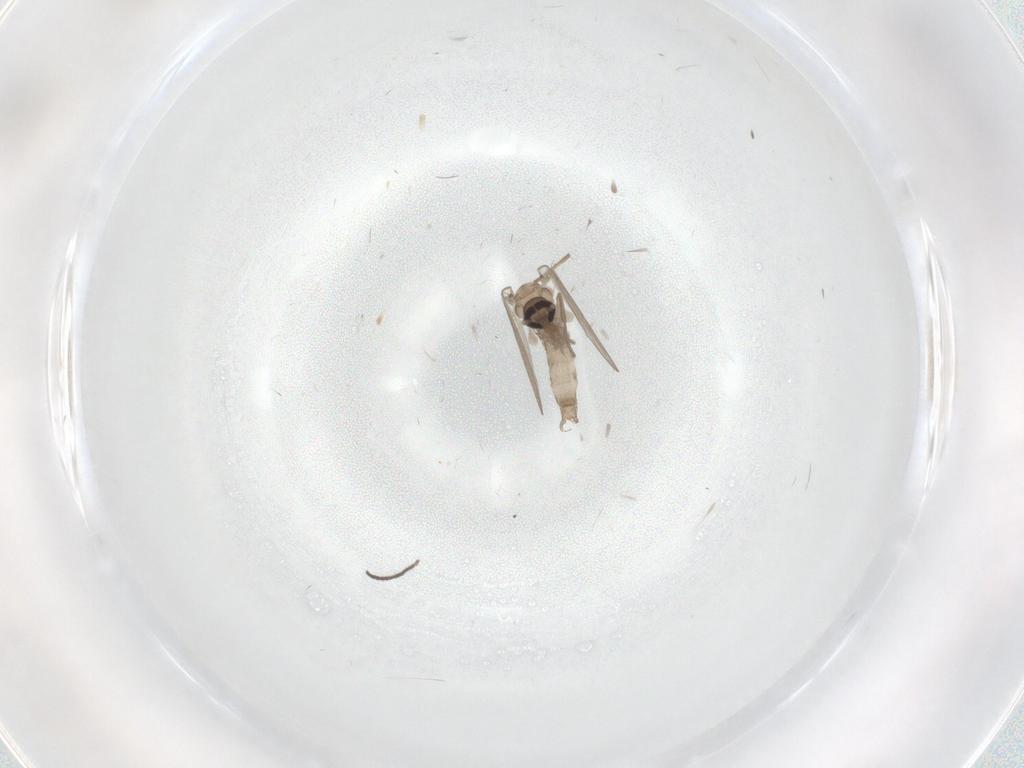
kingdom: Animalia
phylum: Arthropoda
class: Insecta
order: Diptera
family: Psychodidae
